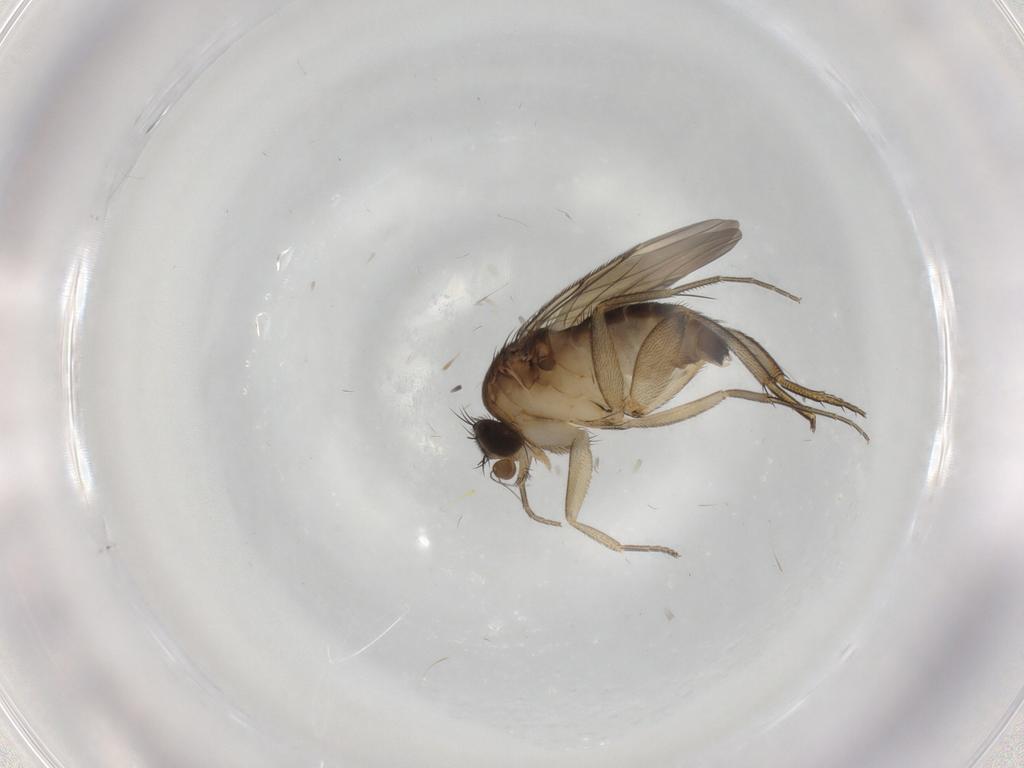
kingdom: Animalia
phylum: Arthropoda
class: Insecta
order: Diptera
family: Phoridae
